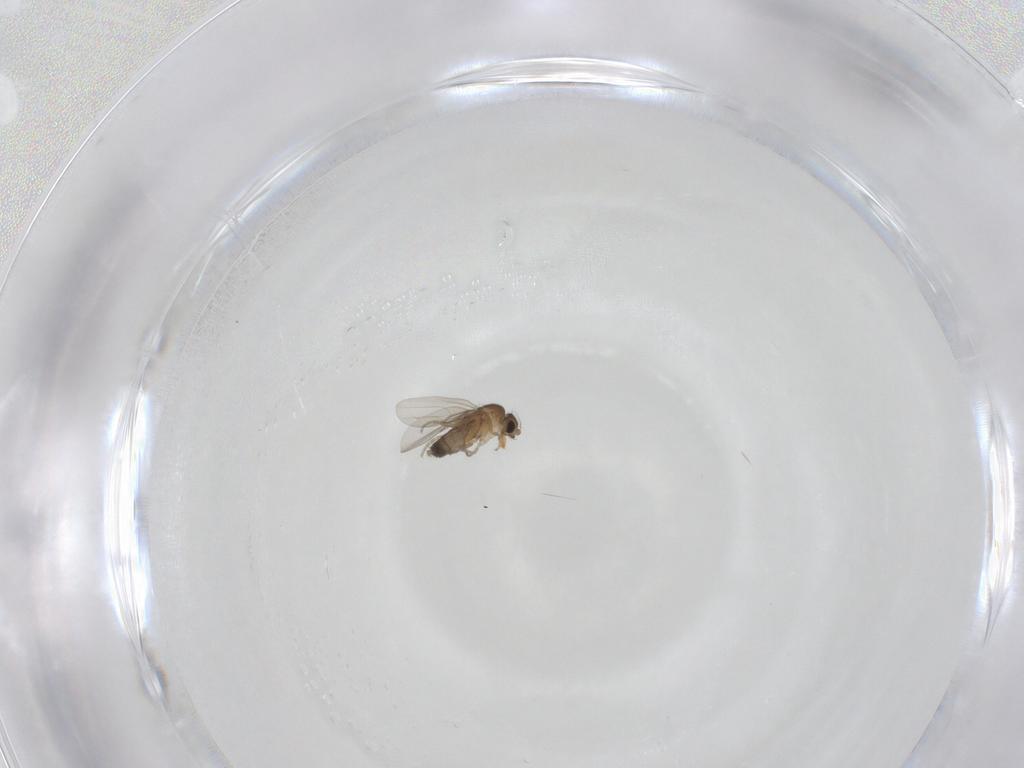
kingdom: Animalia
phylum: Arthropoda
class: Insecta
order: Diptera
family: Phoridae
